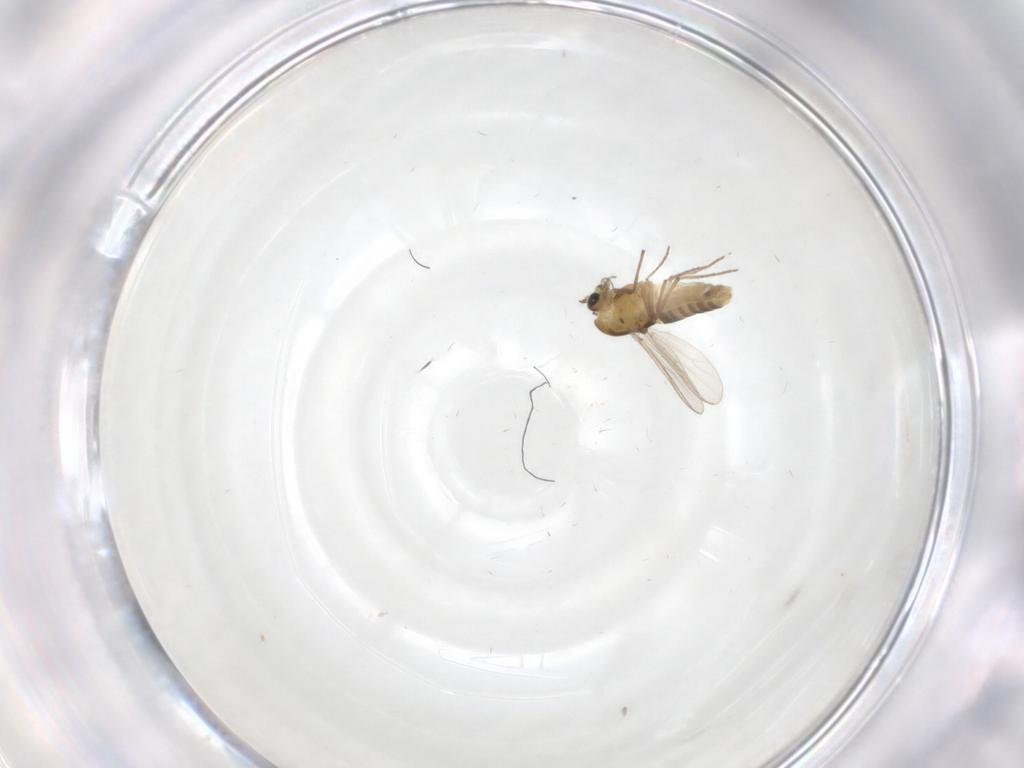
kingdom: Animalia
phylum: Arthropoda
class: Insecta
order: Diptera
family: Chironomidae
